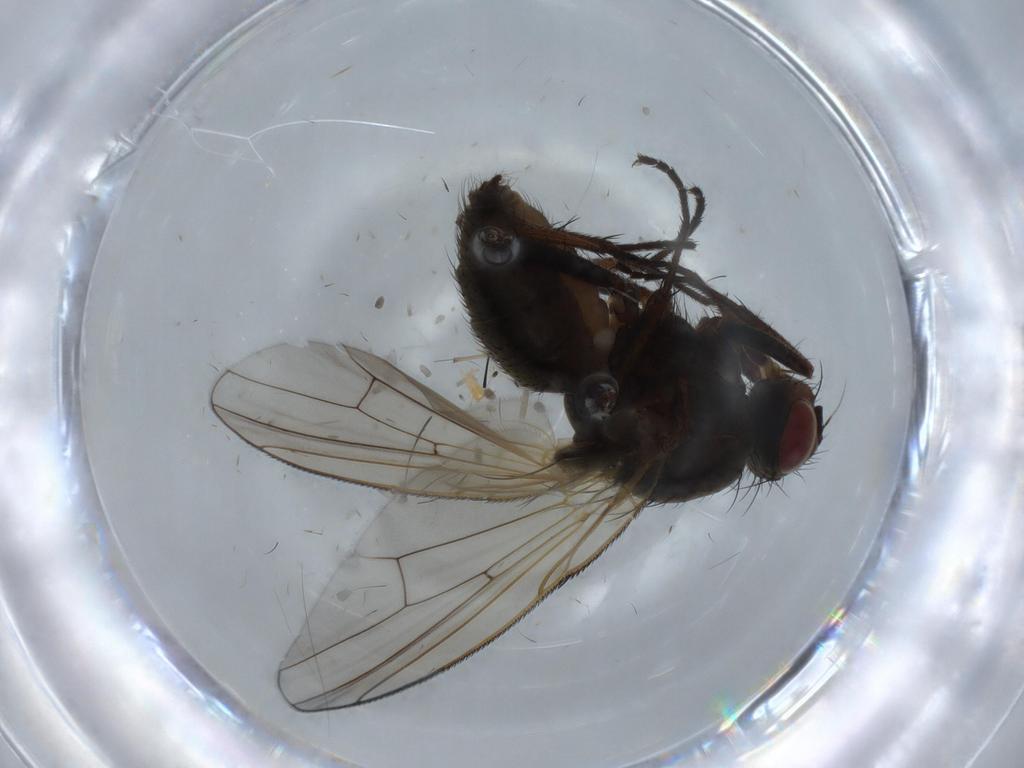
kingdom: Animalia
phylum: Arthropoda
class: Insecta
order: Diptera
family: Anthomyiidae
